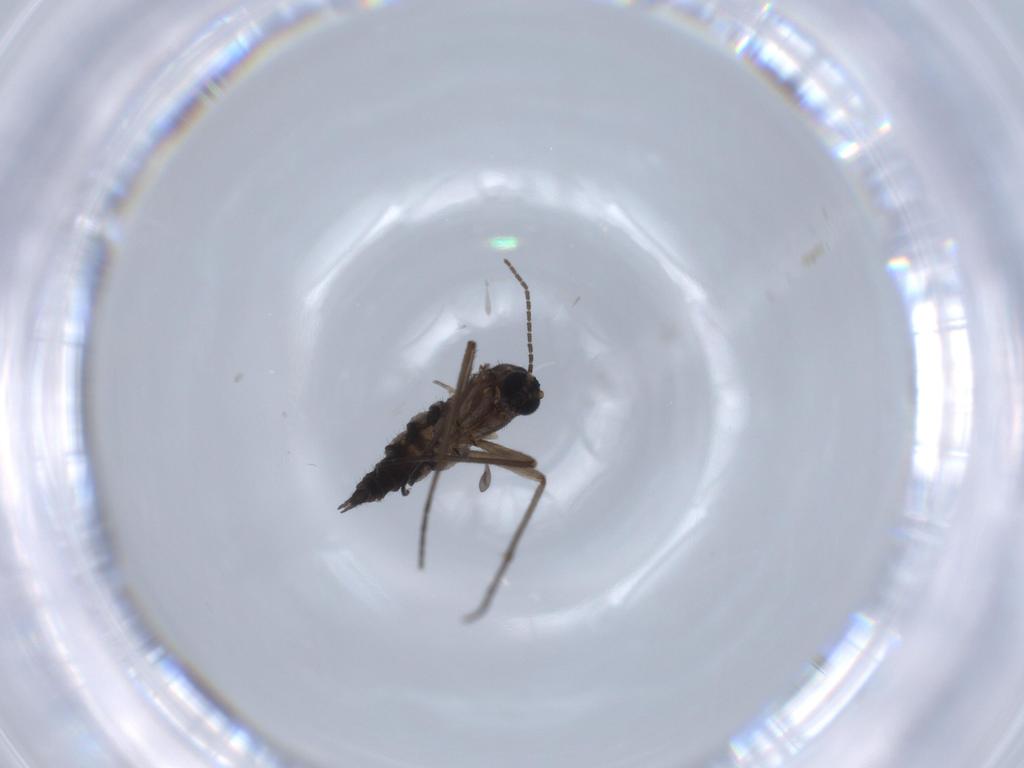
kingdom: Animalia
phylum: Arthropoda
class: Insecta
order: Diptera
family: Sciaridae
